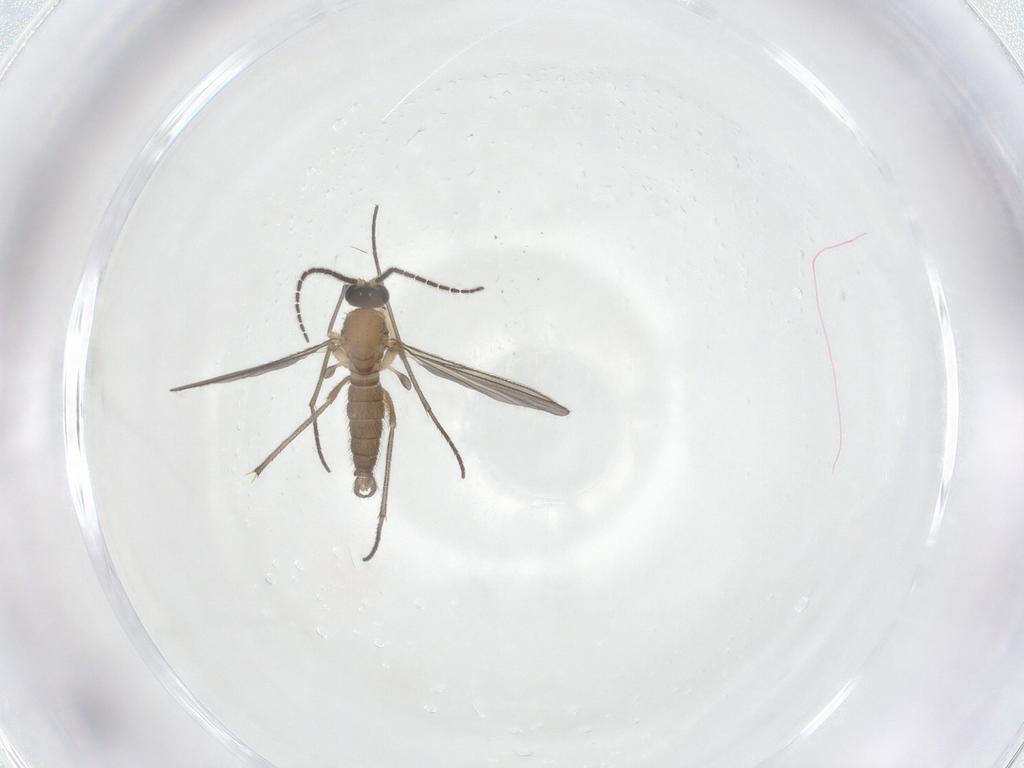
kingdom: Animalia
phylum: Arthropoda
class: Insecta
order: Diptera
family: Sciaridae
